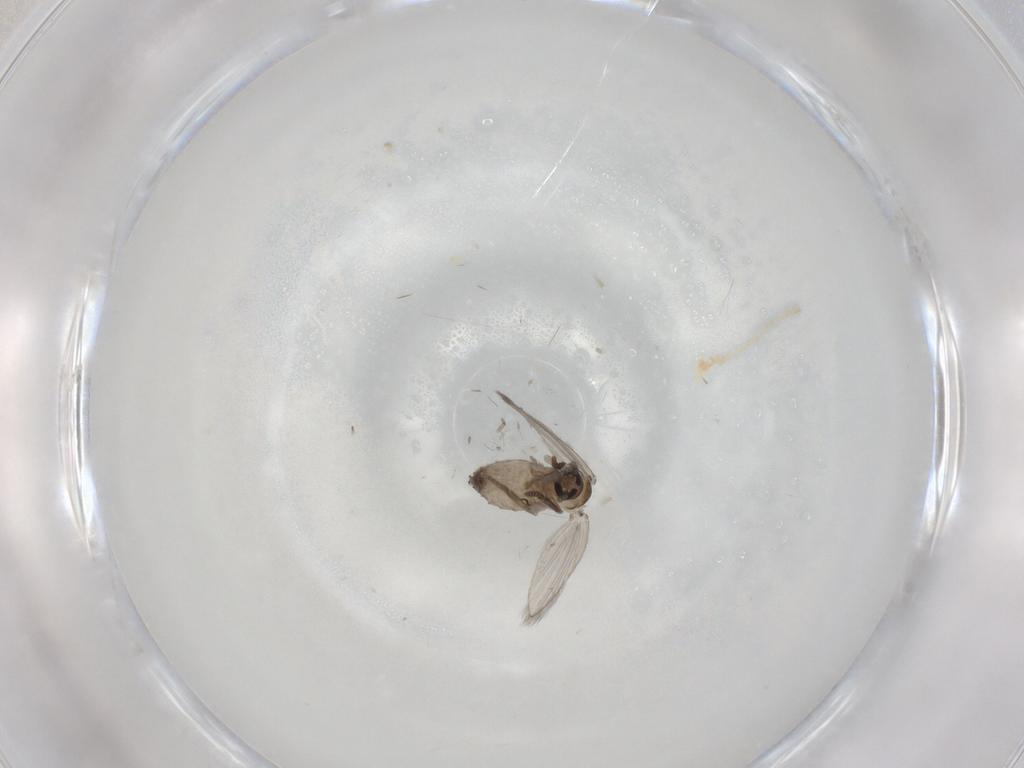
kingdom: Animalia
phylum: Arthropoda
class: Insecta
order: Diptera
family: Psychodidae
